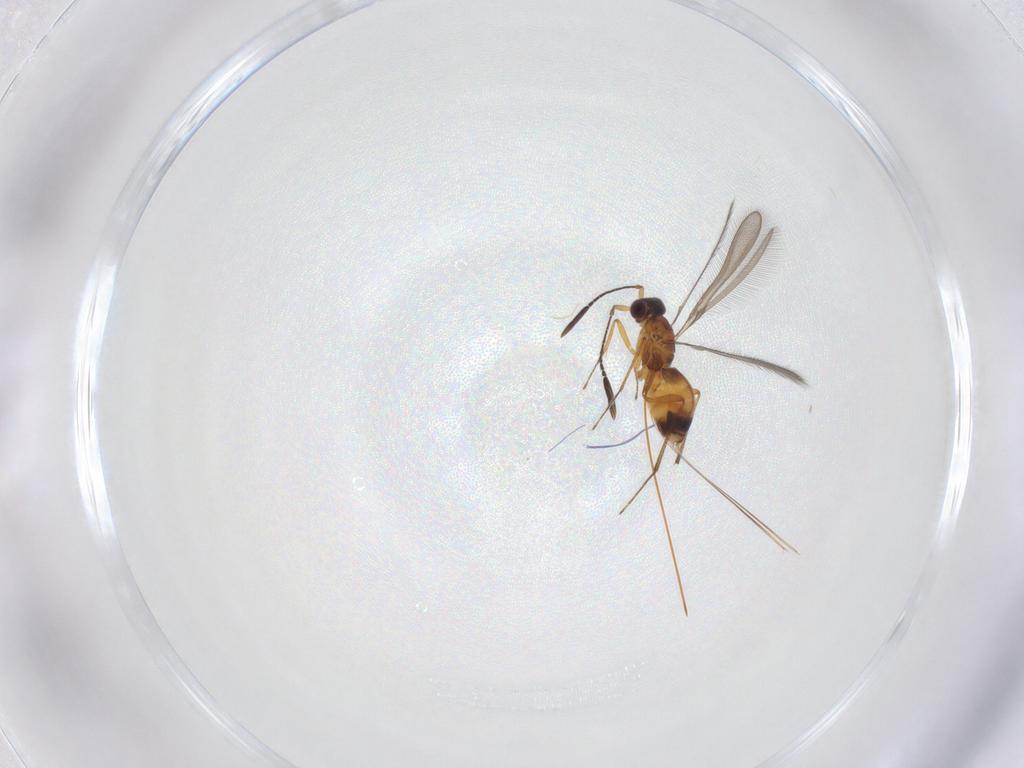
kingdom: Animalia
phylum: Arthropoda
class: Insecta
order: Hymenoptera
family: Mymaridae
